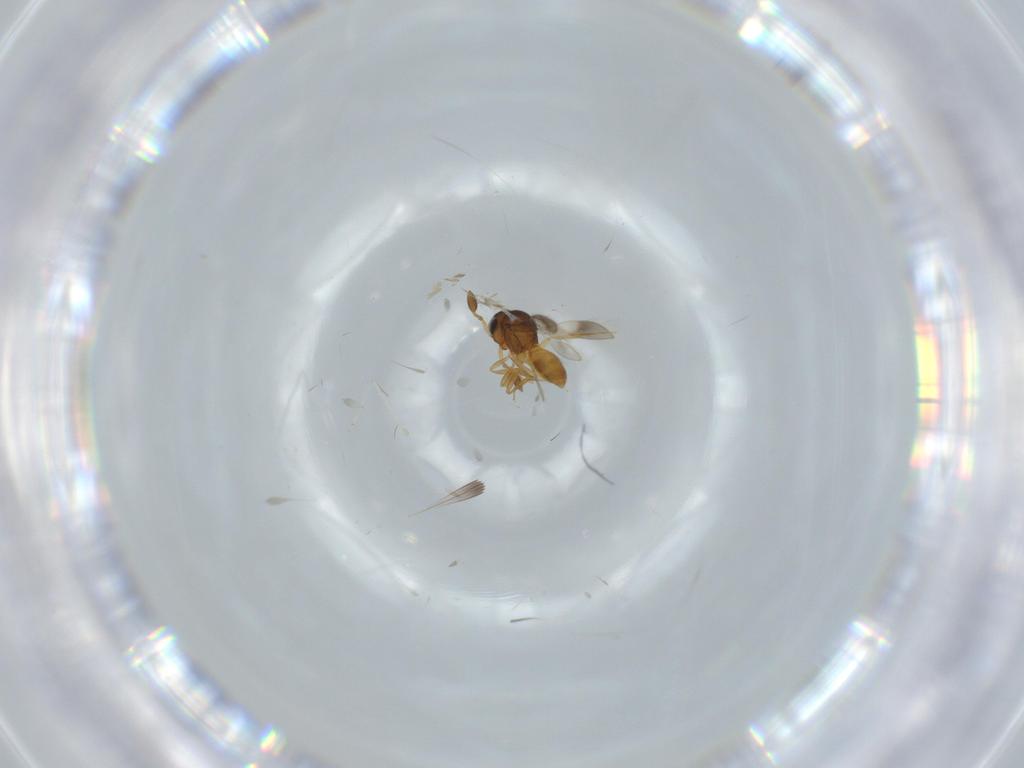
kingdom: Animalia
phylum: Arthropoda
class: Insecta
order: Hymenoptera
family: Scelionidae
